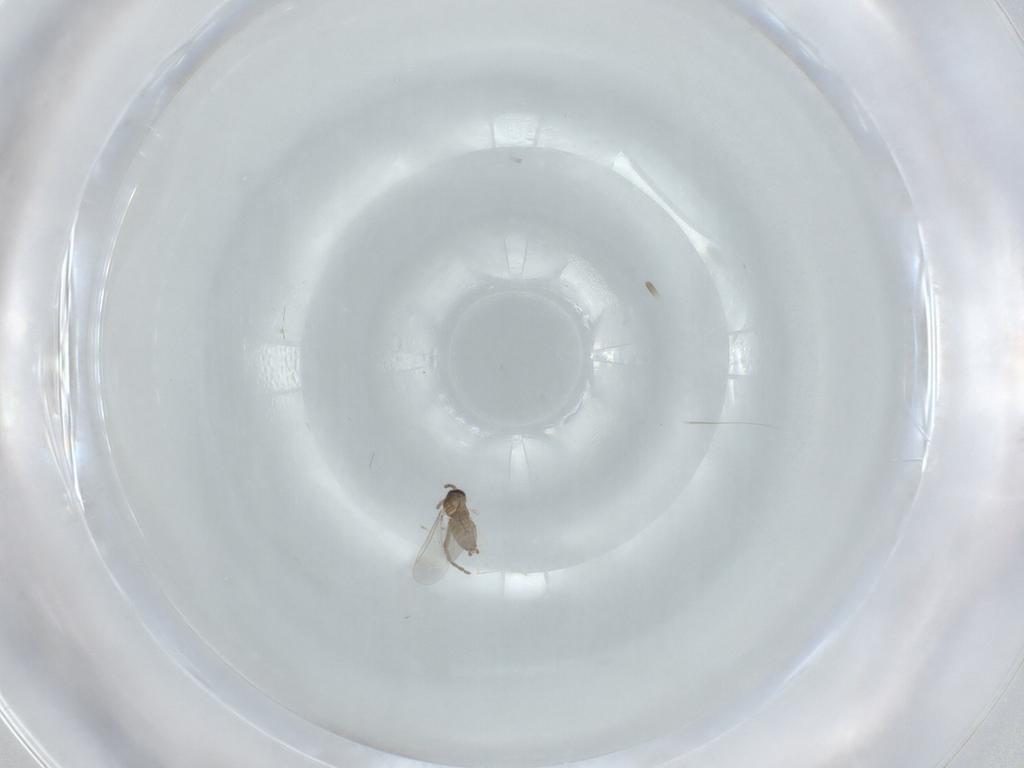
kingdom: Animalia
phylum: Arthropoda
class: Insecta
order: Diptera
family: Cecidomyiidae
